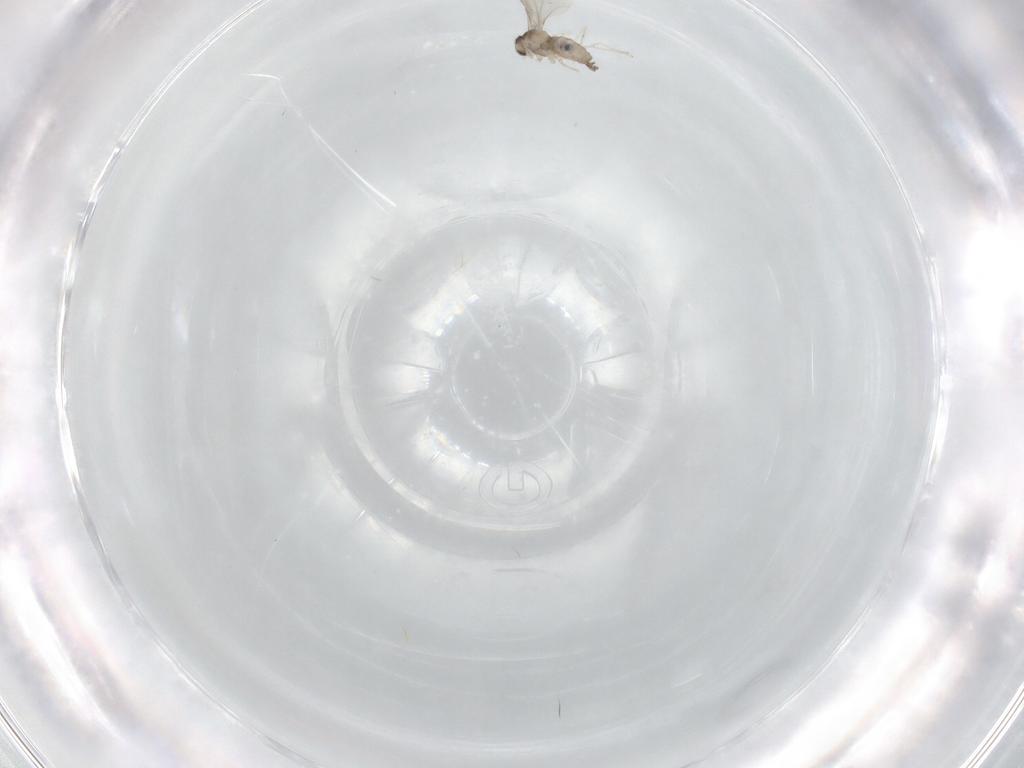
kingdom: Animalia
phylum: Arthropoda
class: Insecta
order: Diptera
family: Sciaridae
